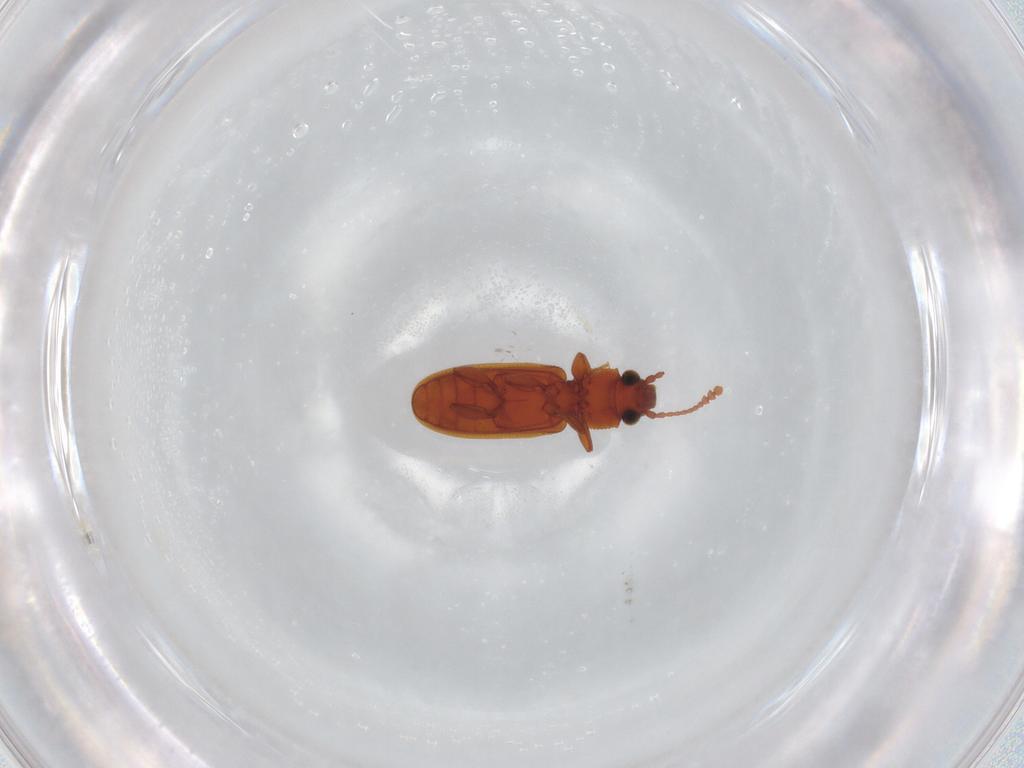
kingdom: Animalia
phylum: Arthropoda
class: Insecta
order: Coleoptera
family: Silvanidae
